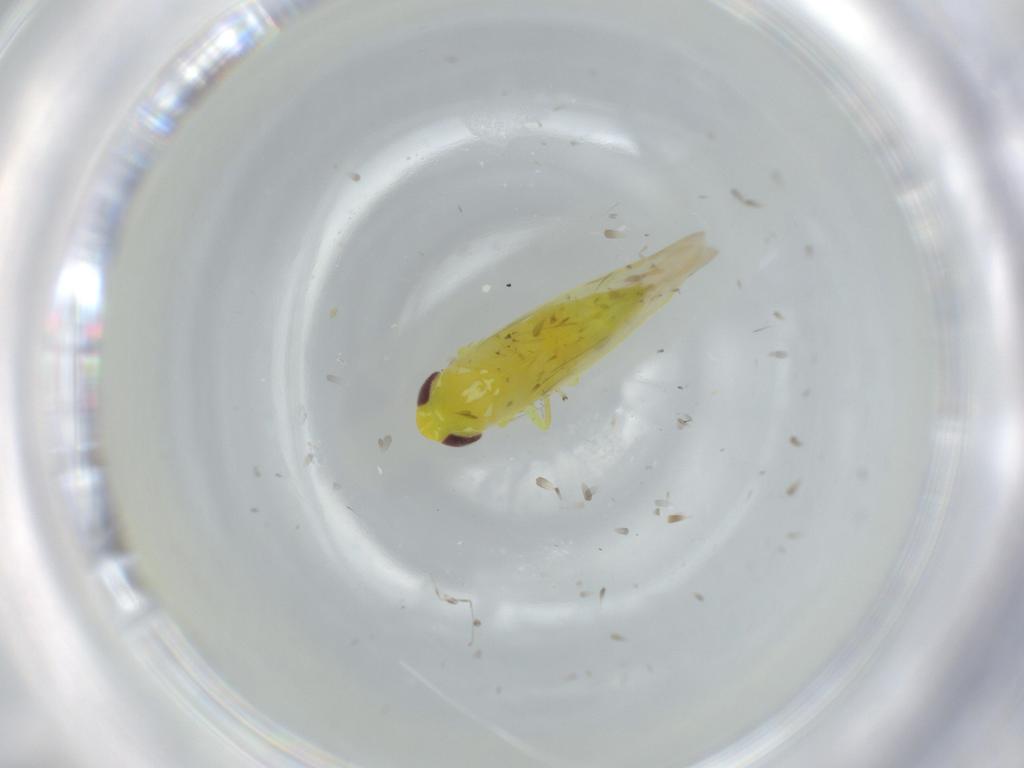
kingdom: Animalia
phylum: Arthropoda
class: Insecta
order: Hemiptera
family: Cicadellidae
